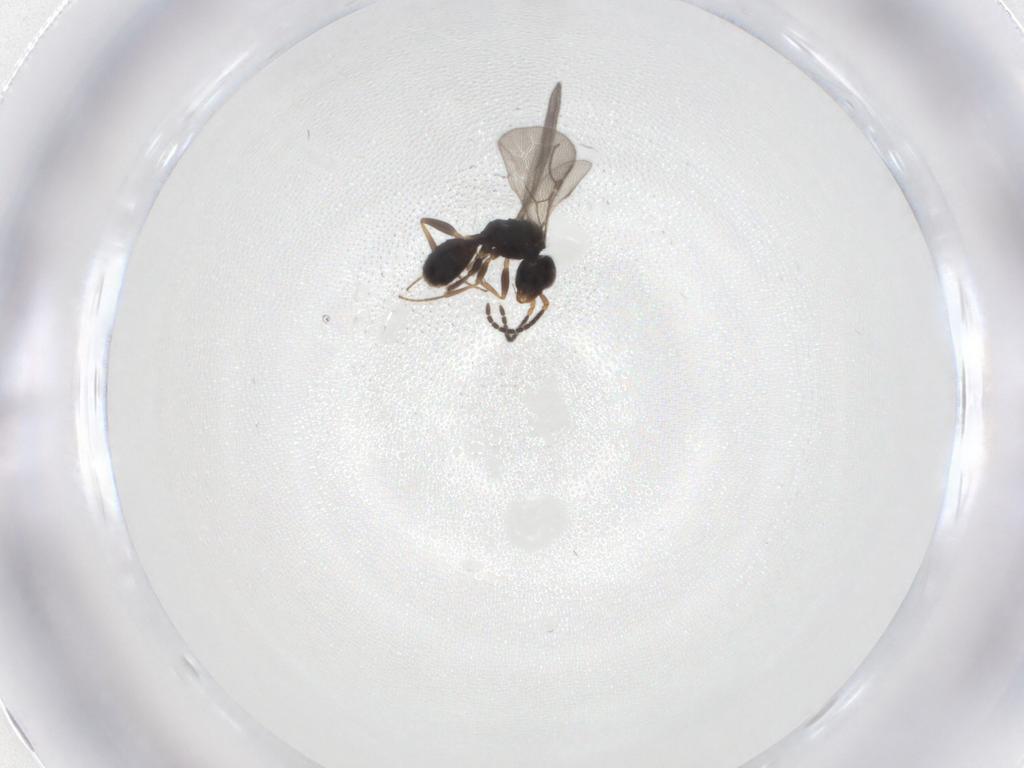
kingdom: Animalia
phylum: Arthropoda
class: Insecta
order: Hymenoptera
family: Bethylidae
